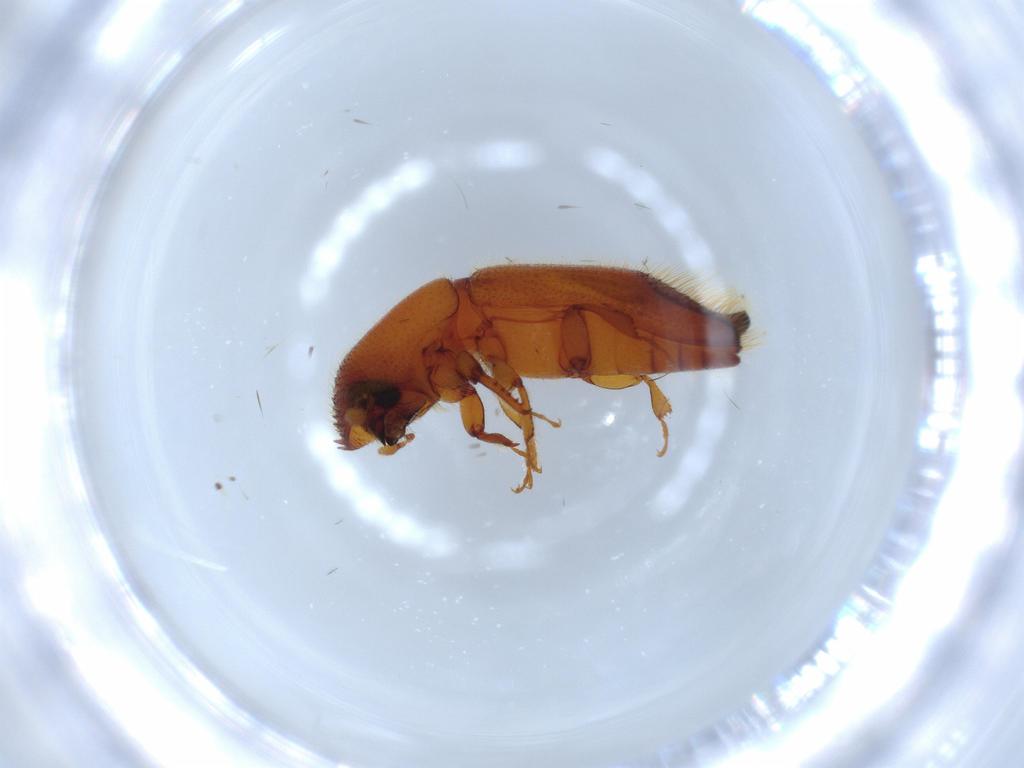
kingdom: Animalia
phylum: Arthropoda
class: Insecta
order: Coleoptera
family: Curculionidae
